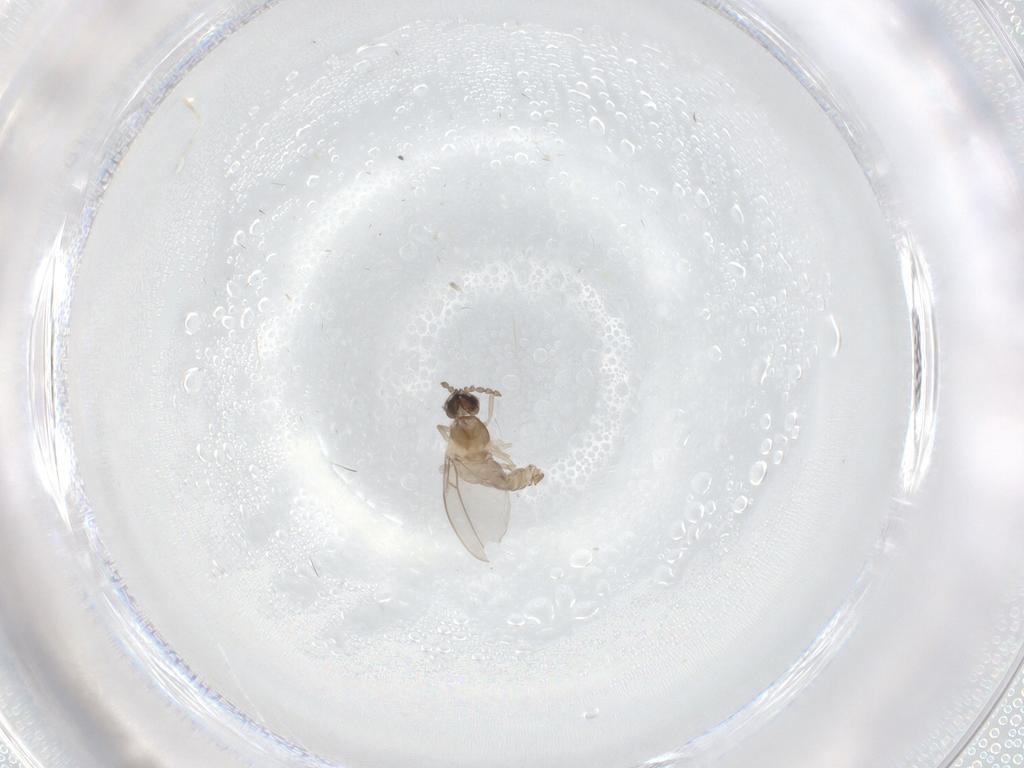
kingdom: Animalia
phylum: Arthropoda
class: Insecta
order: Diptera
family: Cecidomyiidae
